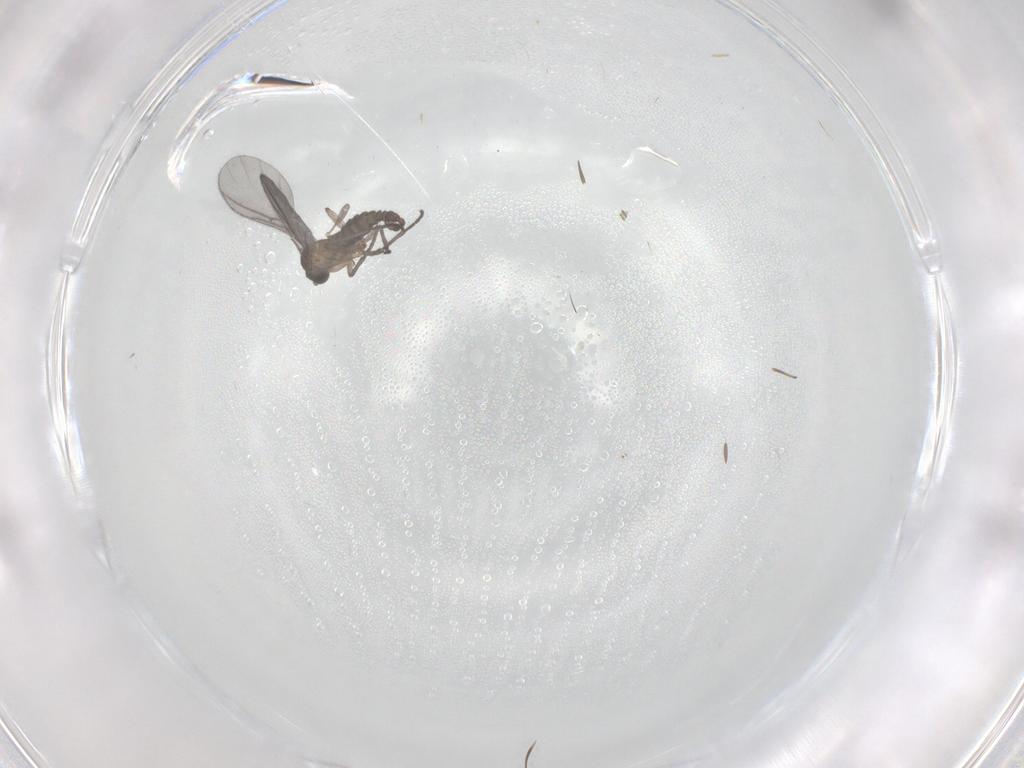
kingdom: Animalia
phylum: Arthropoda
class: Insecta
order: Diptera
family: Sciaridae
